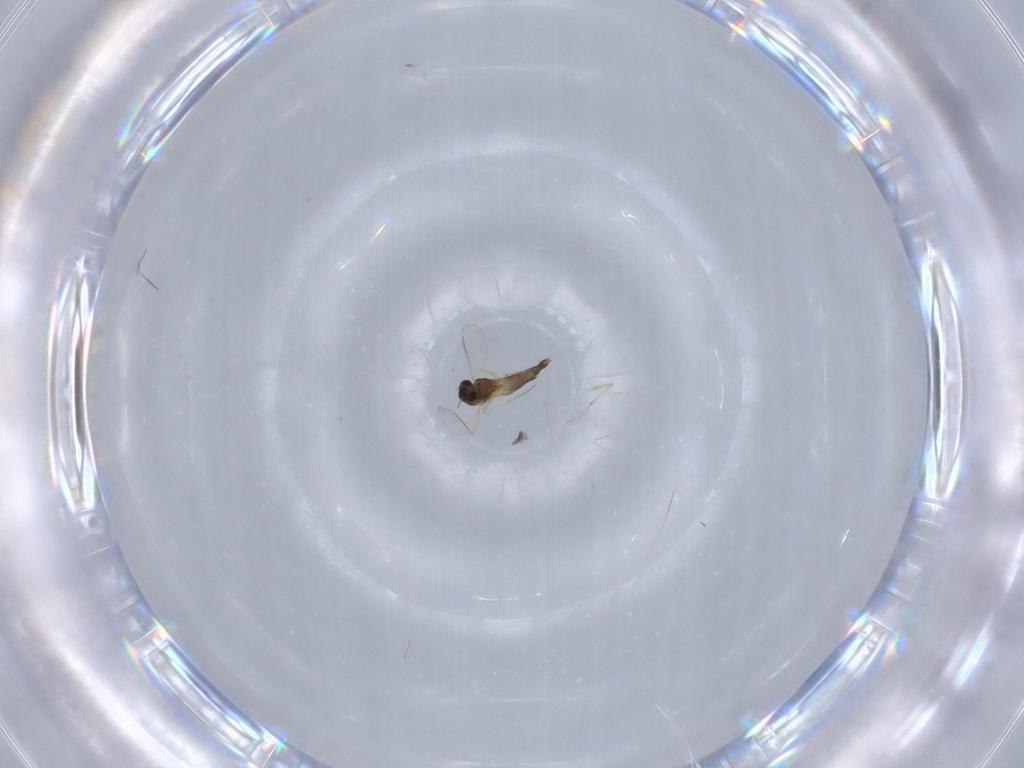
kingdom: Animalia
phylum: Arthropoda
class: Insecta
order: Diptera
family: Chironomidae
